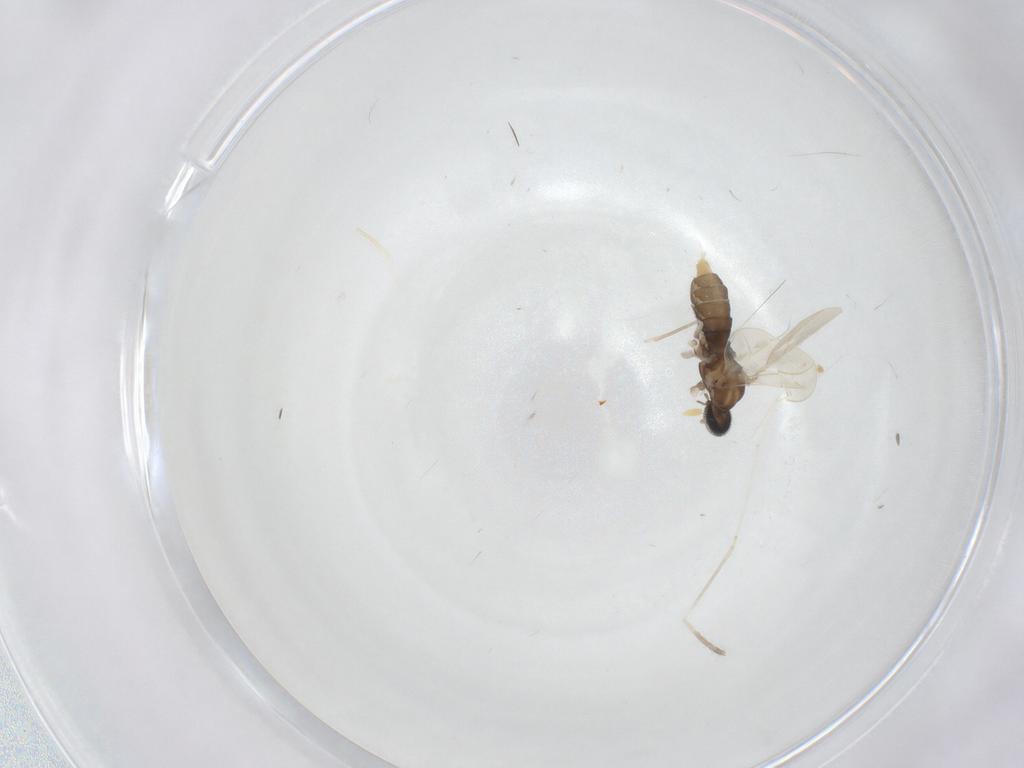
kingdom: Animalia
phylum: Arthropoda
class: Insecta
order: Diptera
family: Cecidomyiidae
